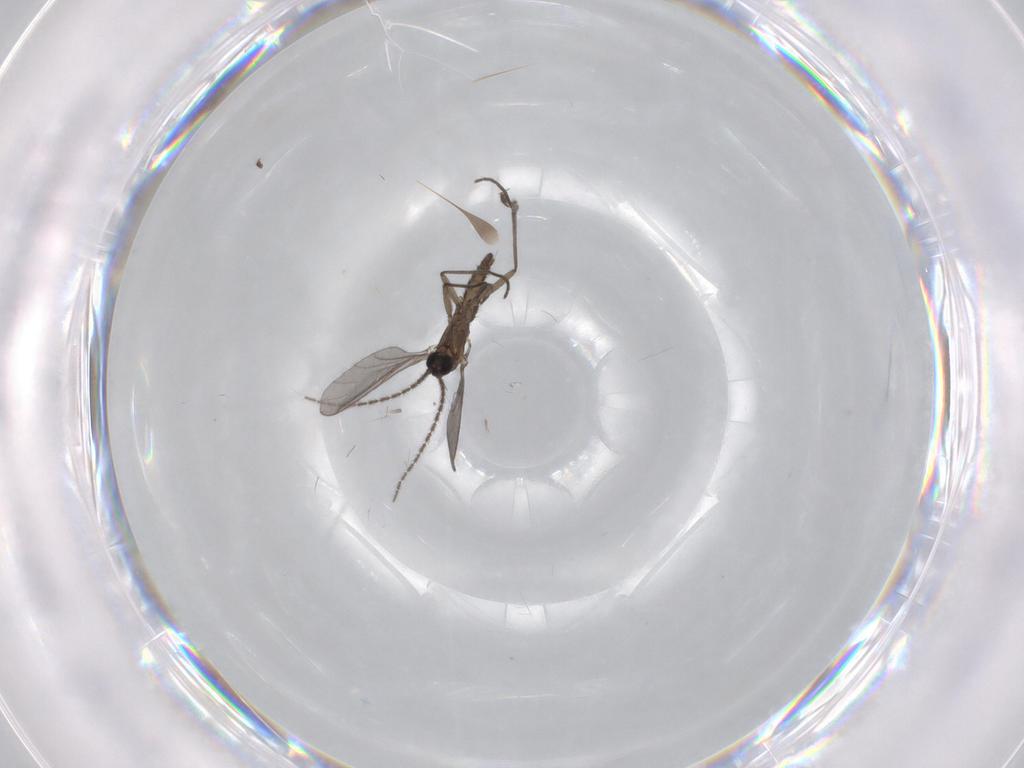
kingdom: Animalia
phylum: Arthropoda
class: Insecta
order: Diptera
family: Sciaridae
